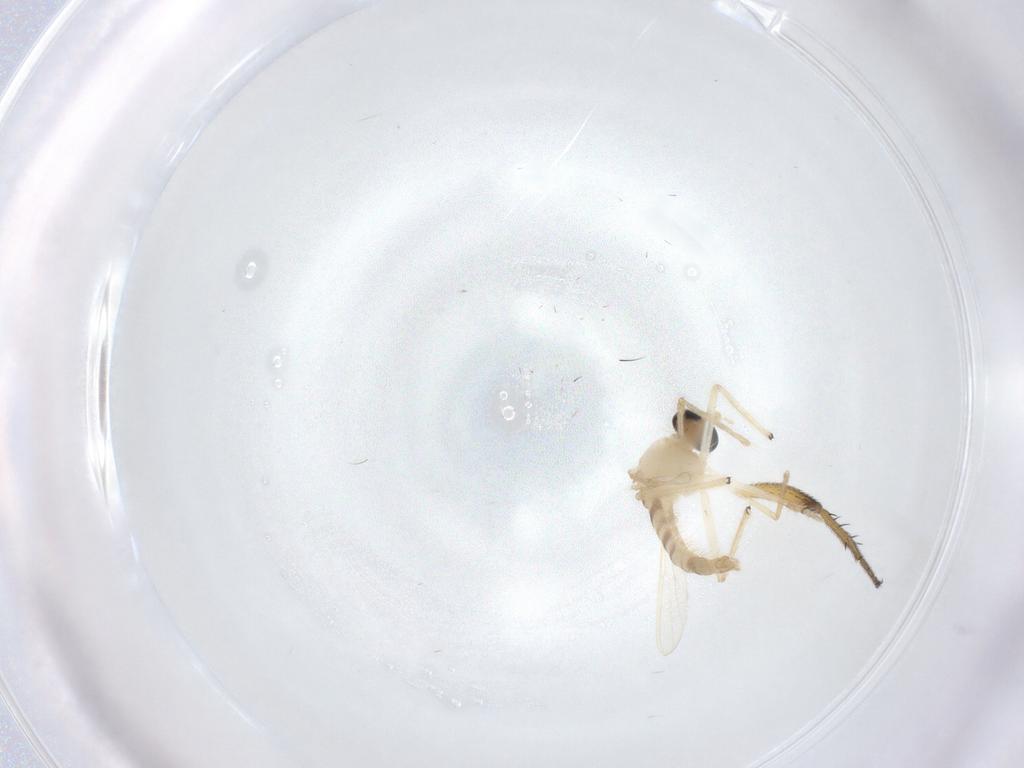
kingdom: Animalia
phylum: Arthropoda
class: Insecta
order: Diptera
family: Chironomidae
